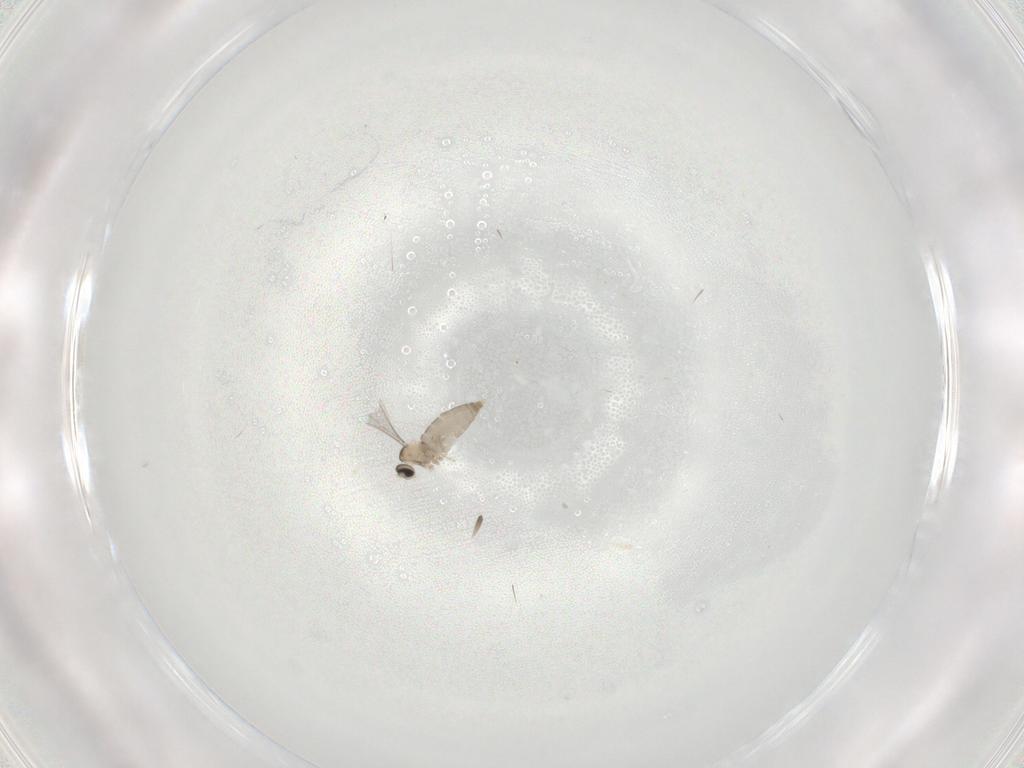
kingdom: Animalia
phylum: Arthropoda
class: Insecta
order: Diptera
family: Cecidomyiidae
